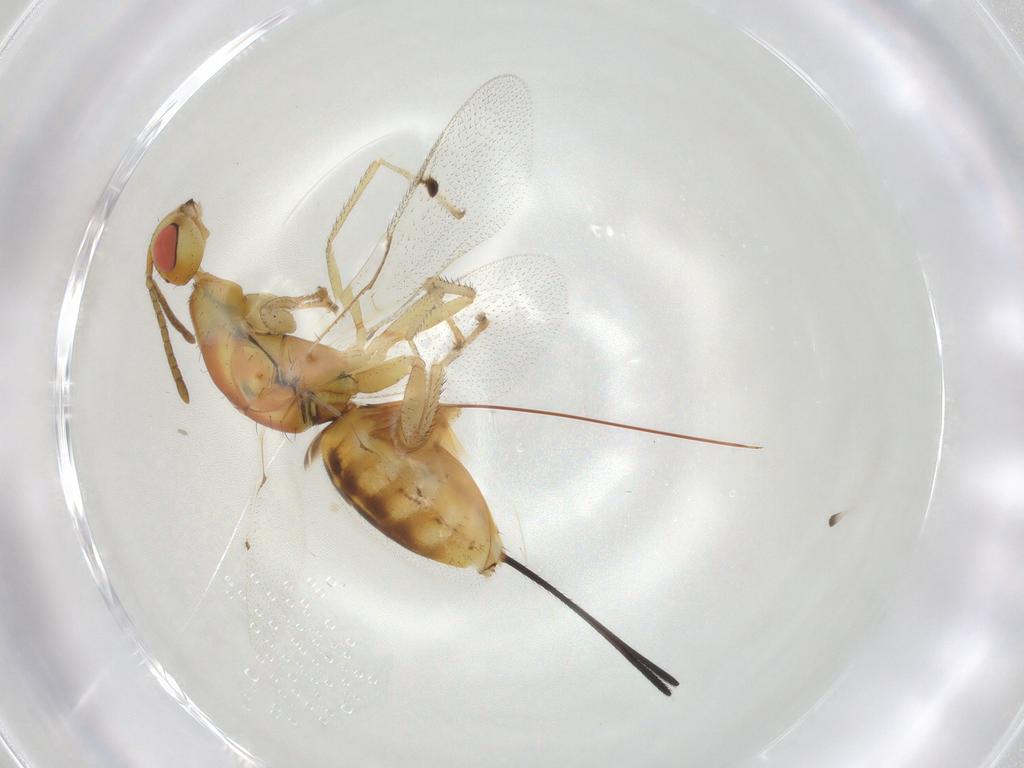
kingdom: Animalia
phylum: Arthropoda
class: Insecta
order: Hymenoptera
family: Megastigmidae
